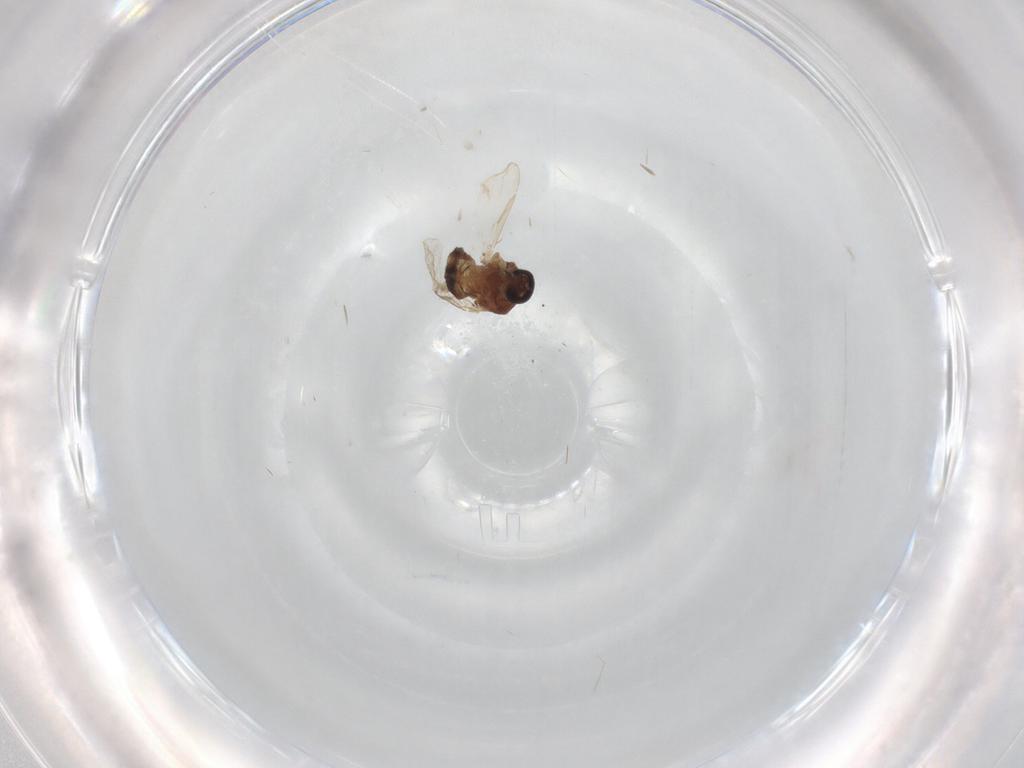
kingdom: Animalia
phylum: Arthropoda
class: Insecta
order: Diptera
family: Ceratopogonidae
